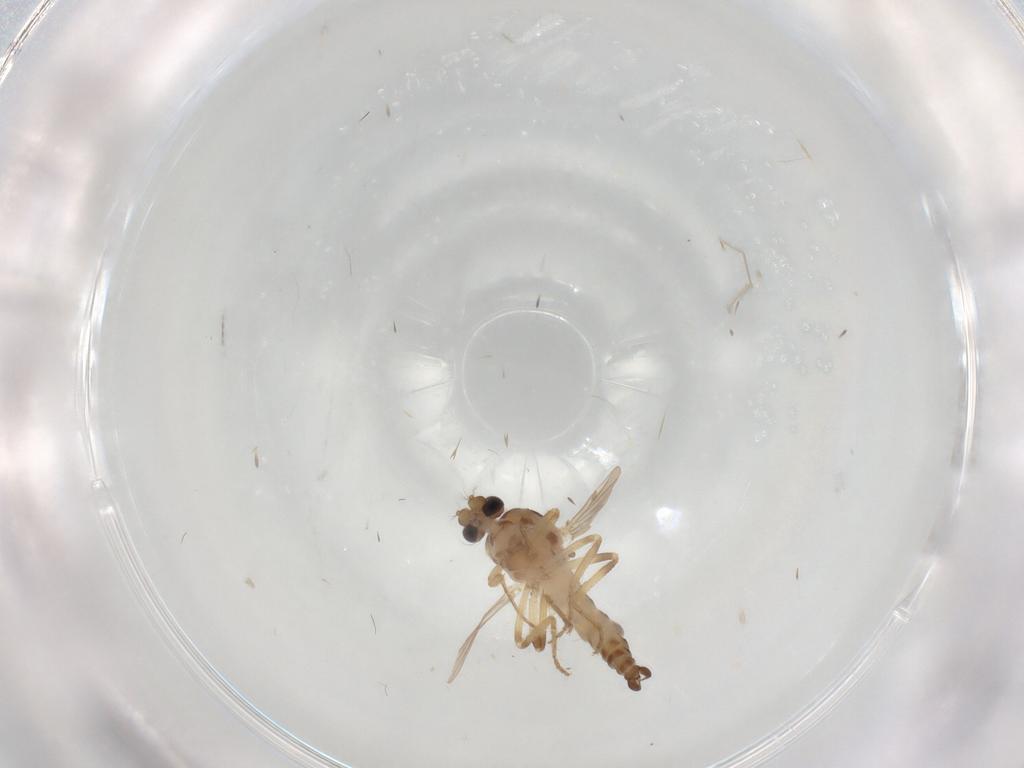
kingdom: Animalia
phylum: Arthropoda
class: Insecta
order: Diptera
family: Ceratopogonidae
